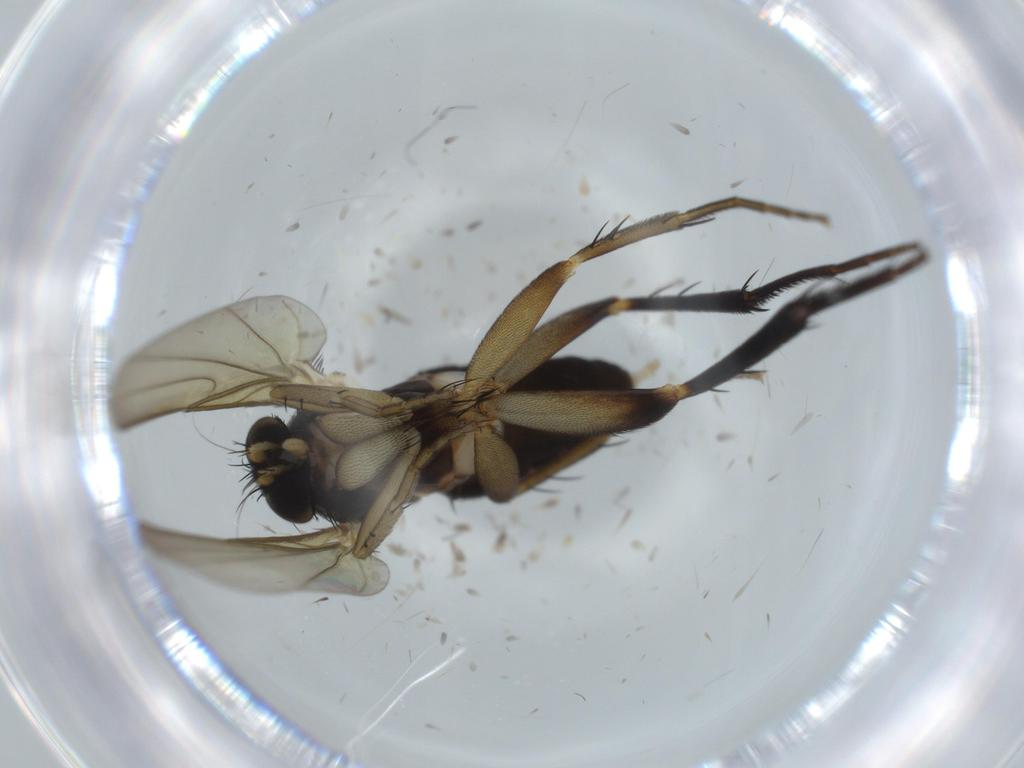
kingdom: Animalia
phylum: Arthropoda
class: Insecta
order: Diptera
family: Phoridae
